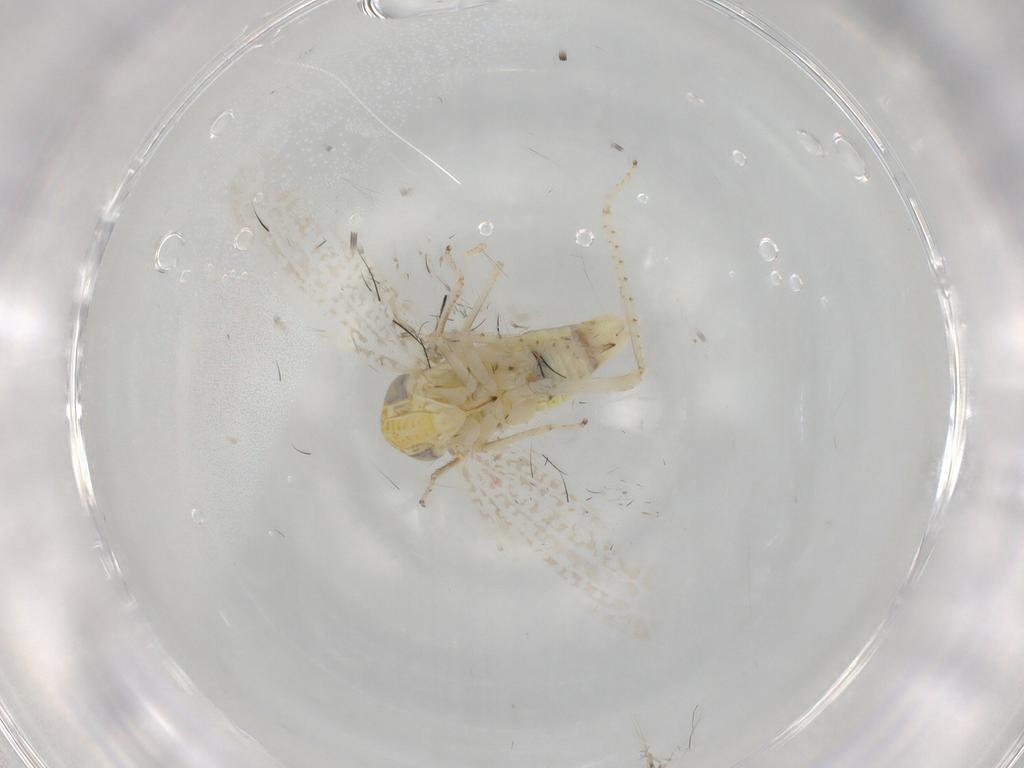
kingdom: Animalia
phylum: Arthropoda
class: Insecta
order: Hemiptera
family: Cicadellidae
